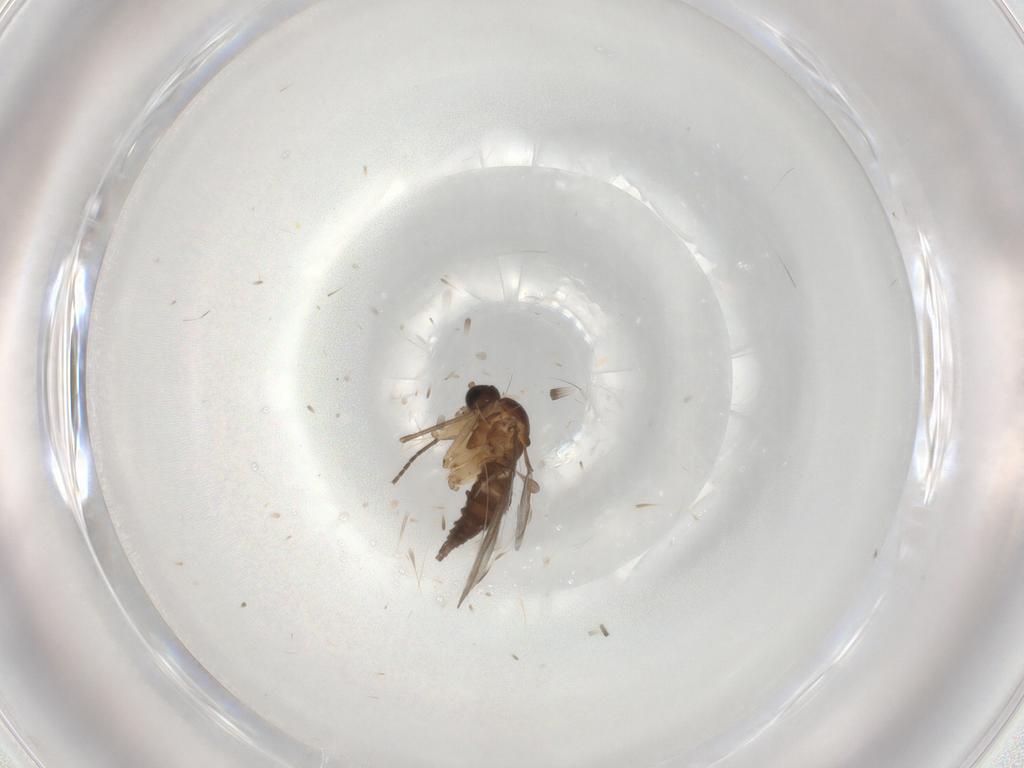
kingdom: Animalia
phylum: Arthropoda
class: Insecta
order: Diptera
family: Sciaridae
